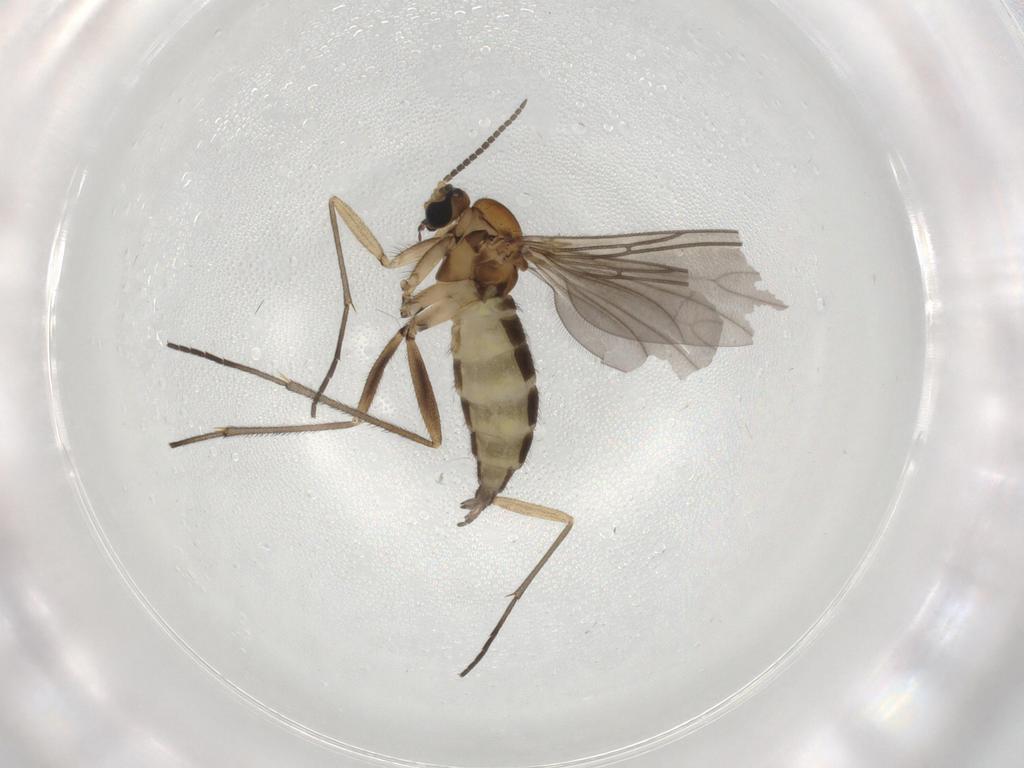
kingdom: Animalia
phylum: Arthropoda
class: Insecta
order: Diptera
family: Sciaridae
